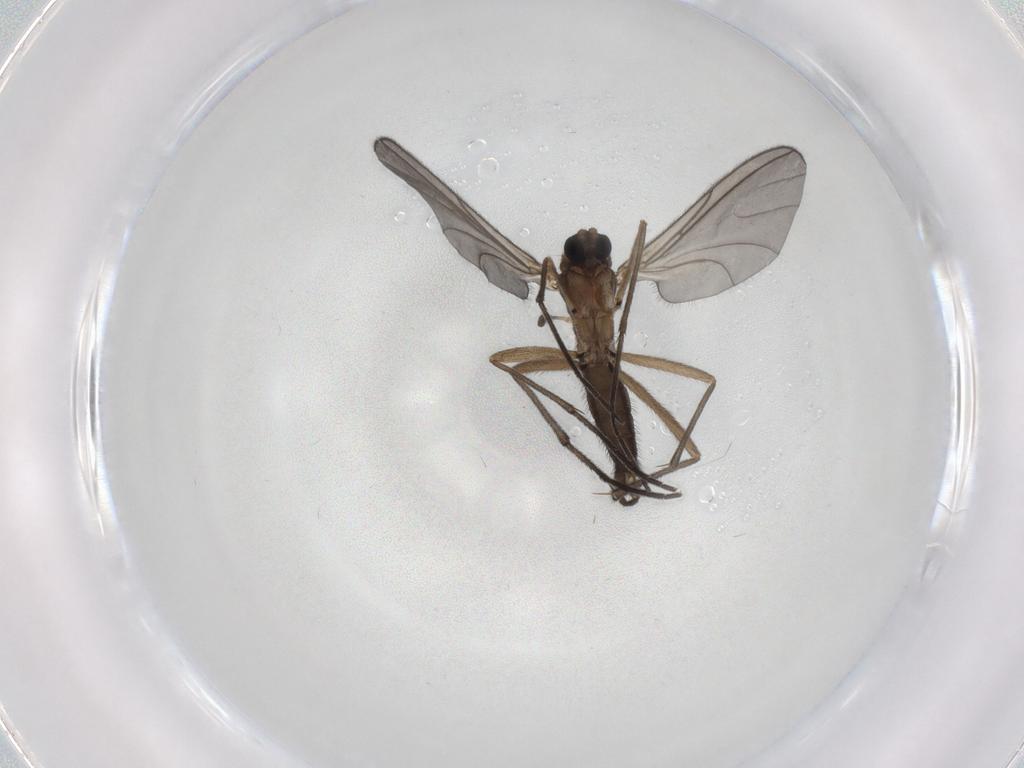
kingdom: Animalia
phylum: Arthropoda
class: Insecta
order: Diptera
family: Sciaridae
